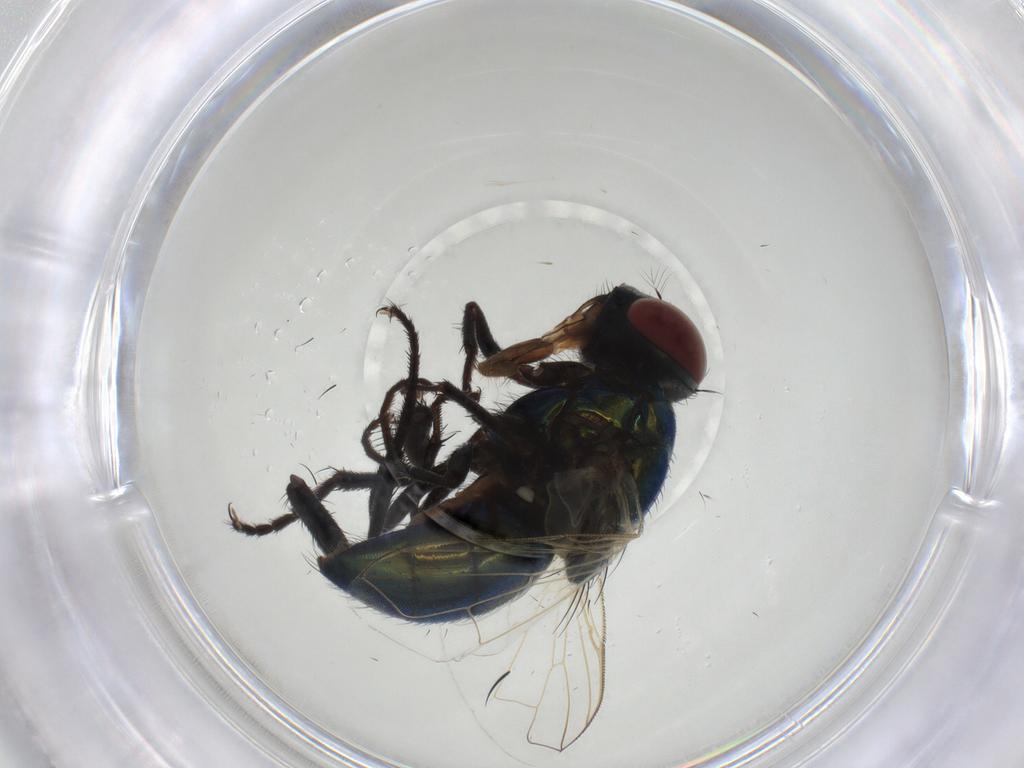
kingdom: Animalia
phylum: Arthropoda
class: Insecta
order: Diptera
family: Muscidae
